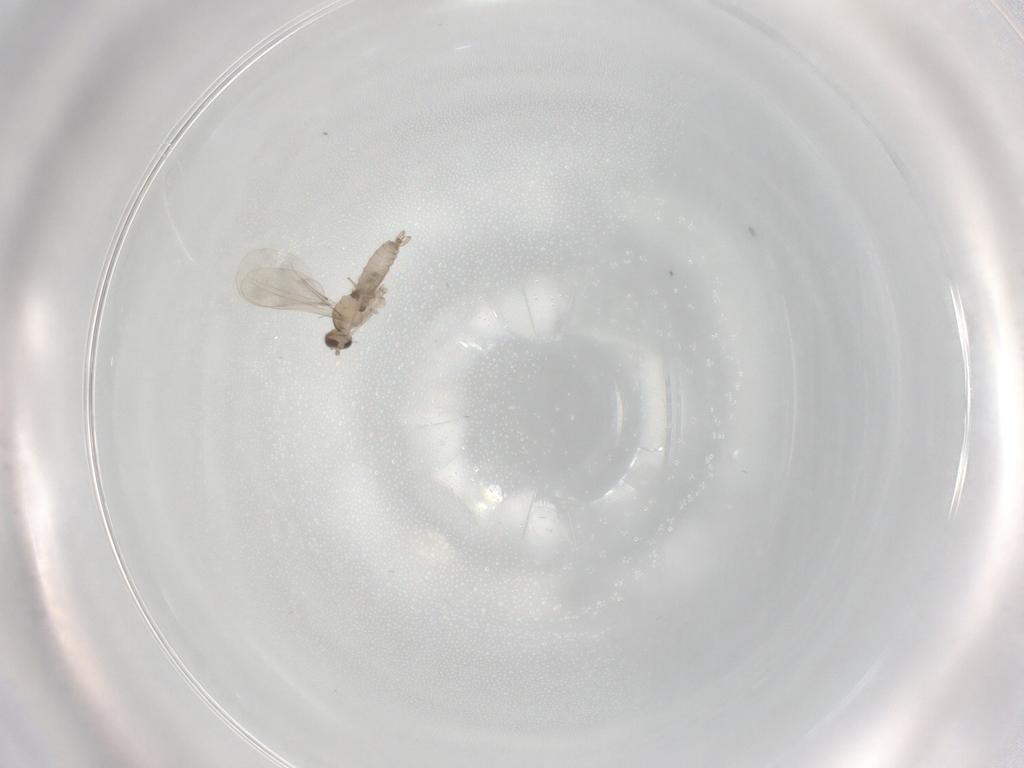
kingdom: Animalia
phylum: Arthropoda
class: Insecta
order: Diptera
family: Cecidomyiidae
